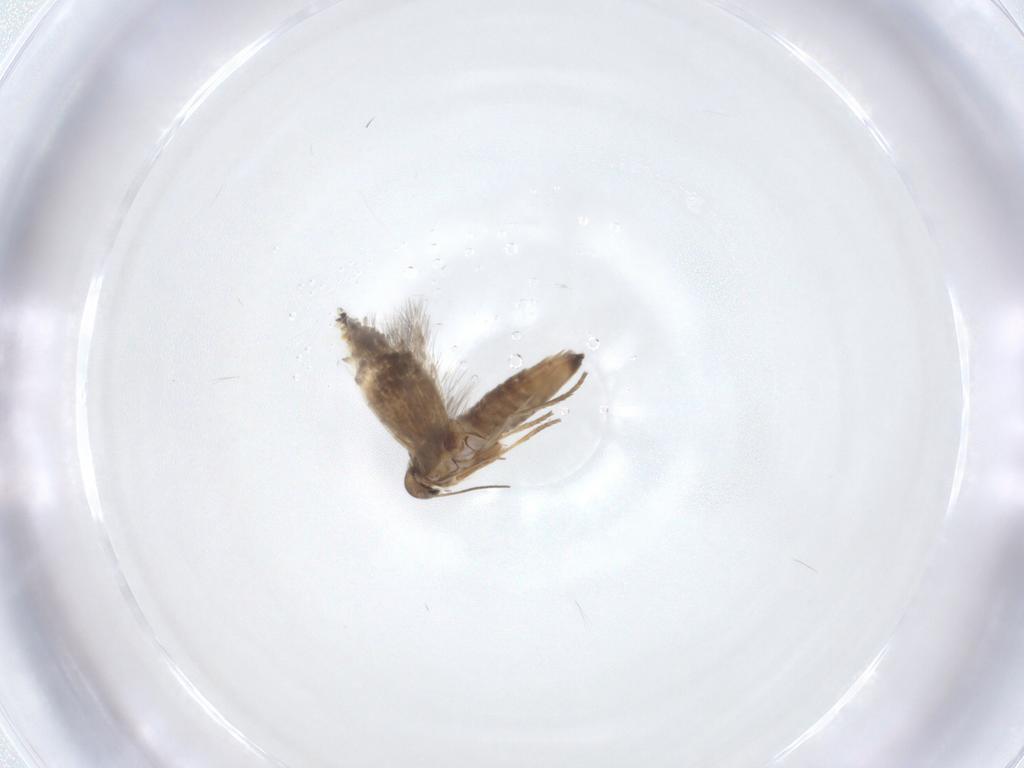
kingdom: Animalia
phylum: Arthropoda
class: Insecta
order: Lepidoptera
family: Heliozelidae
